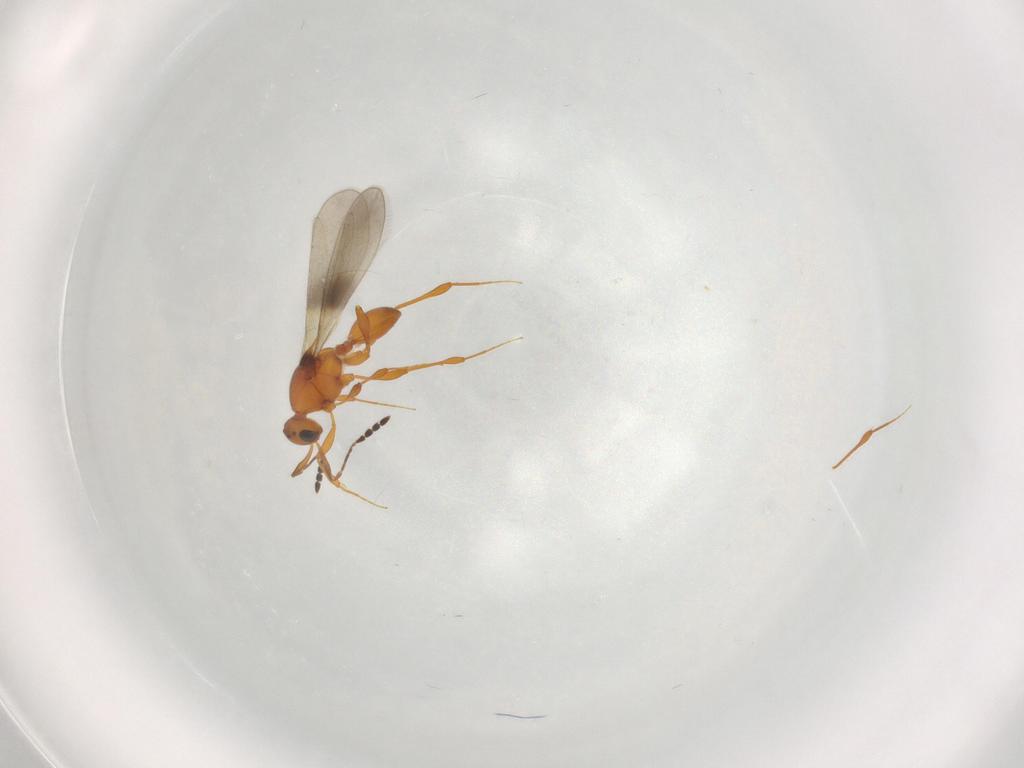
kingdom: Animalia
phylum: Arthropoda
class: Insecta
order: Hymenoptera
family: Platygastridae
